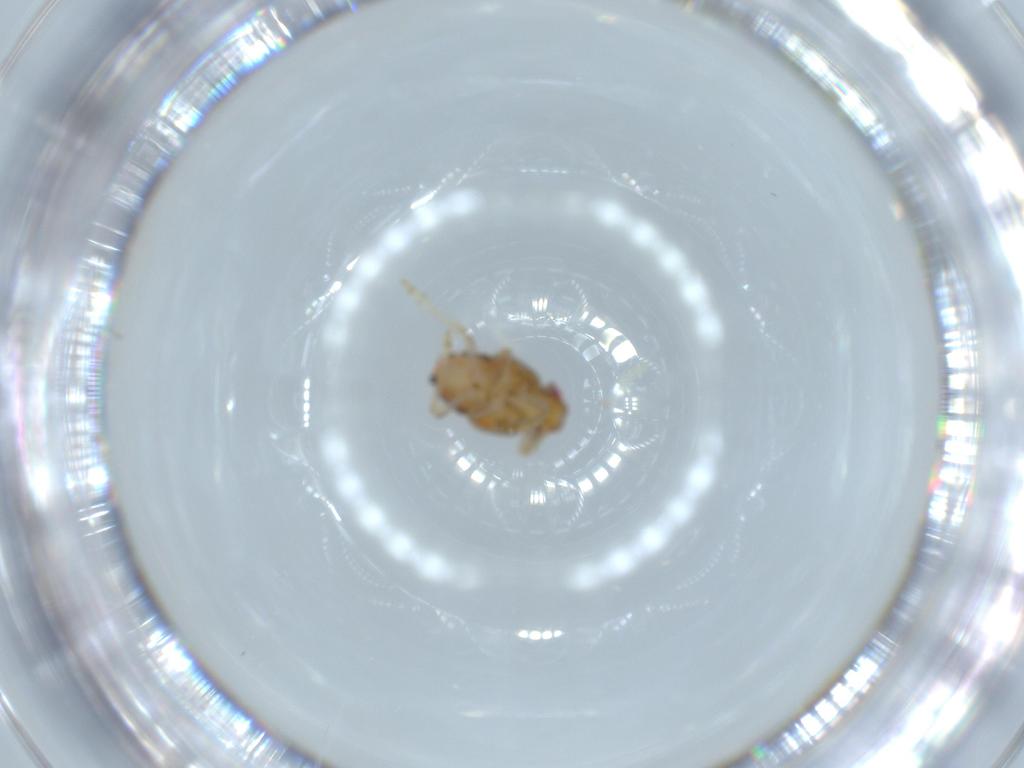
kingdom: Animalia
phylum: Arthropoda
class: Insecta
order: Hemiptera
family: Issidae
